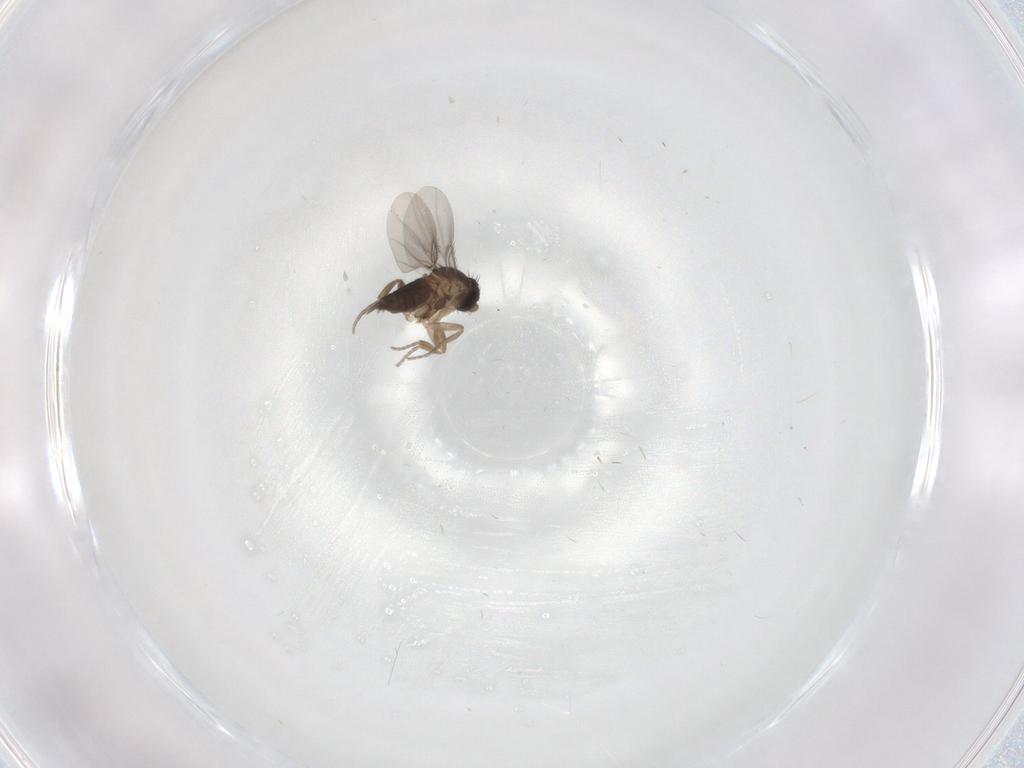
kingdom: Animalia
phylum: Arthropoda
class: Insecta
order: Diptera
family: Phoridae
